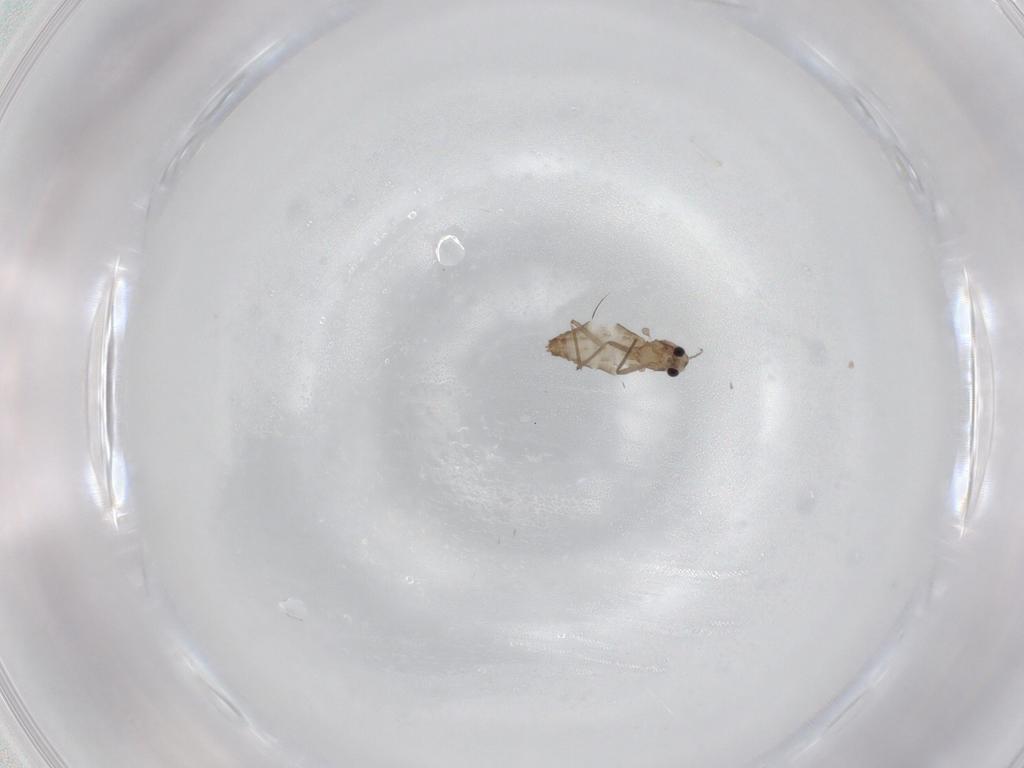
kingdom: Animalia
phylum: Arthropoda
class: Insecta
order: Diptera
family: Chironomidae
